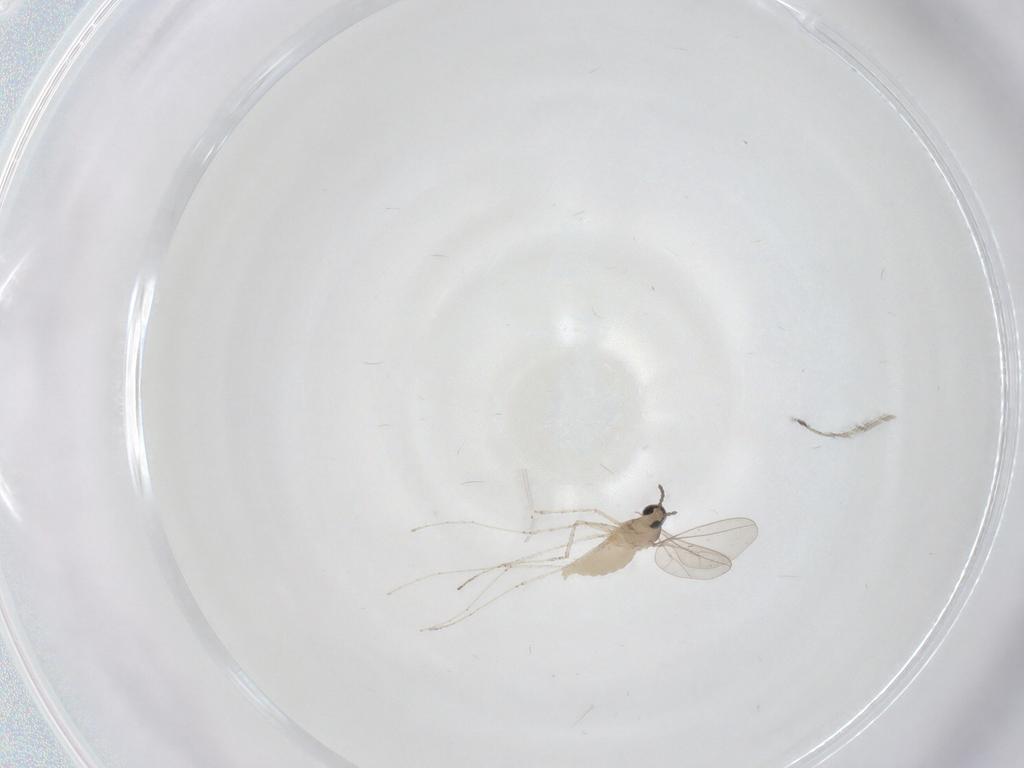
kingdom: Animalia
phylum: Arthropoda
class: Insecta
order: Diptera
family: Cecidomyiidae
